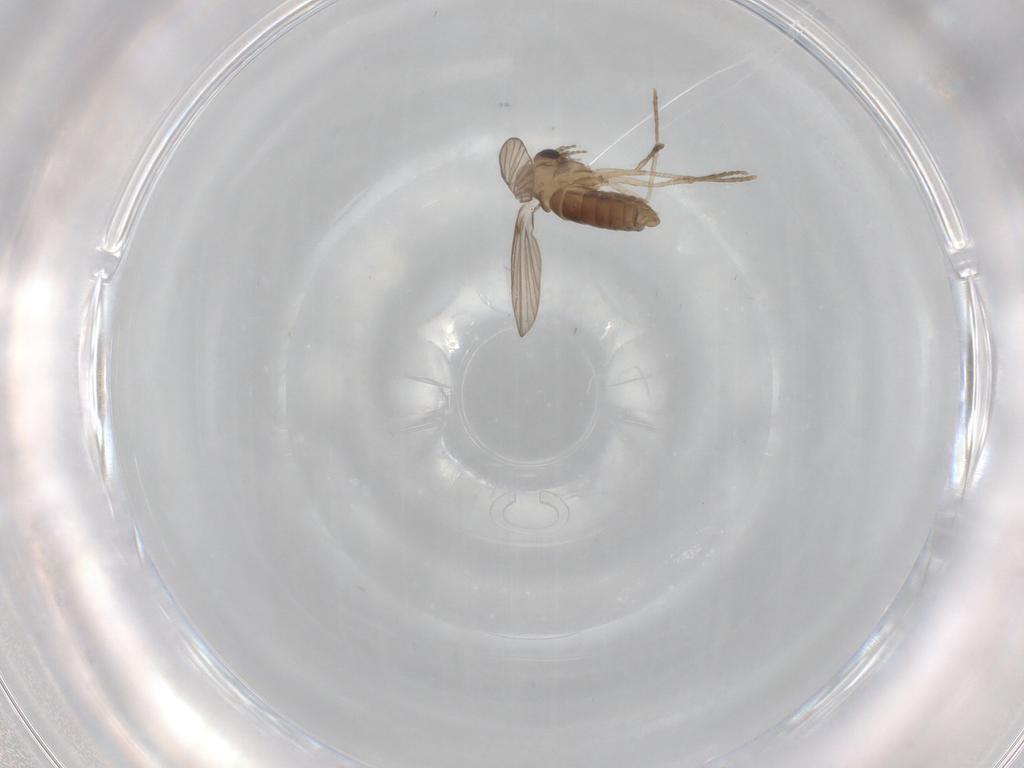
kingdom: Animalia
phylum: Arthropoda
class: Insecta
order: Diptera
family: Psychodidae
